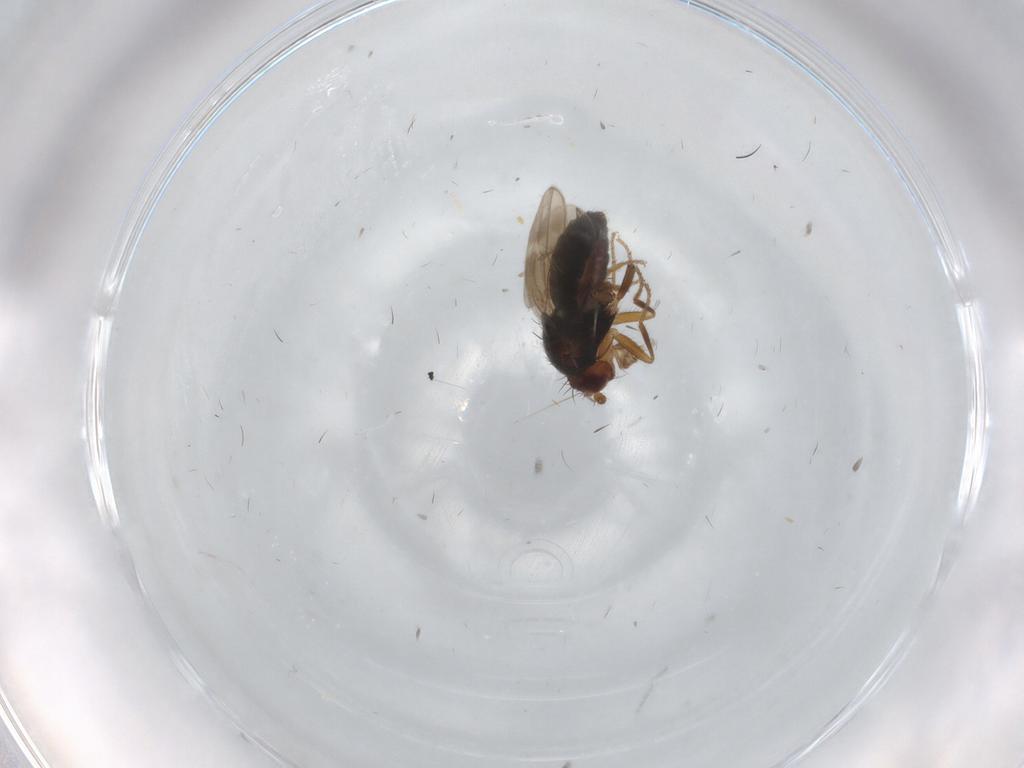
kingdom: Animalia
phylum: Arthropoda
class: Insecta
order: Diptera
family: Sphaeroceridae
